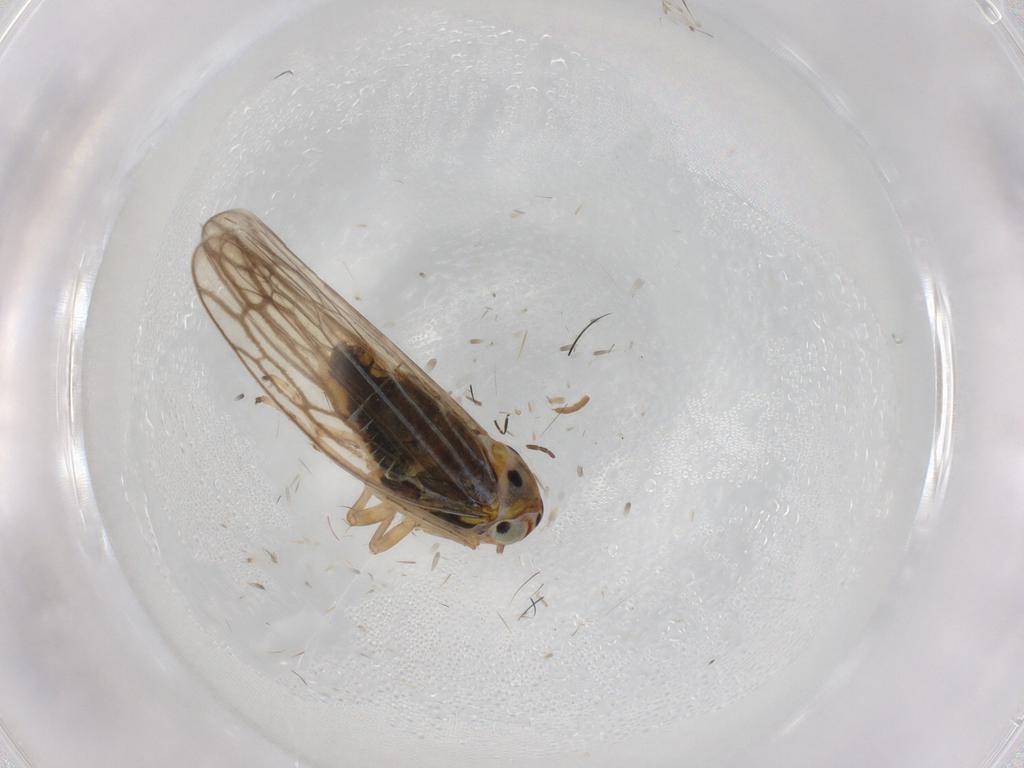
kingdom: Animalia
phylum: Arthropoda
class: Insecta
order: Hemiptera
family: Cicadellidae
